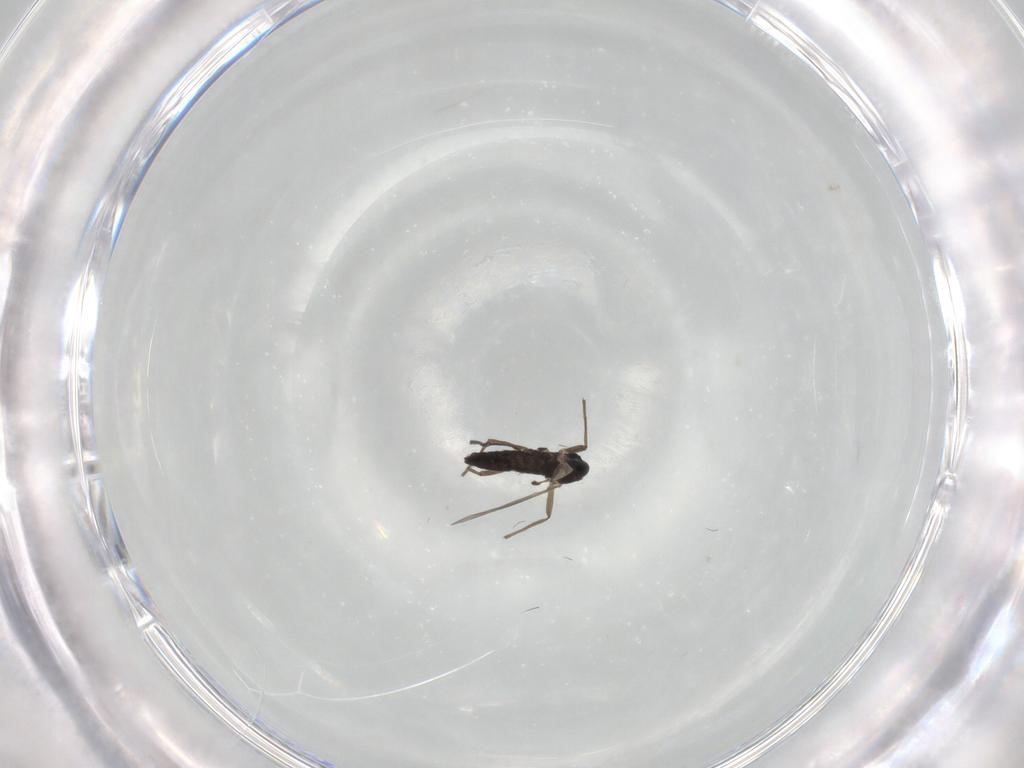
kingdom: Animalia
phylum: Arthropoda
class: Insecta
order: Diptera
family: Chironomidae
